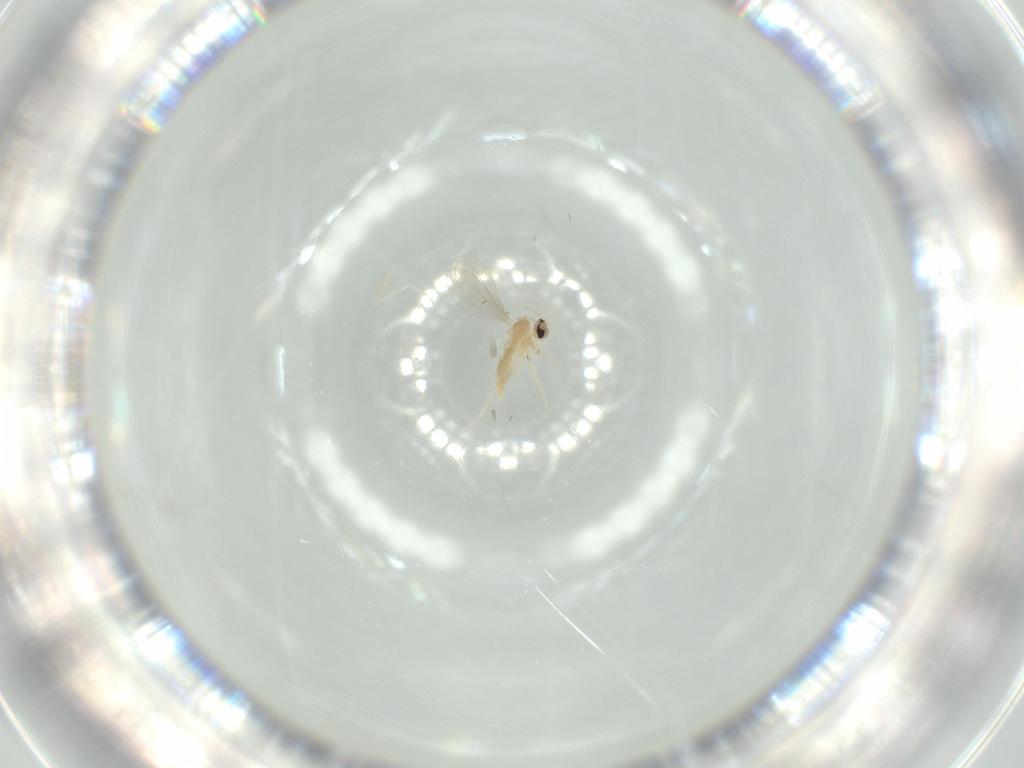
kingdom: Animalia
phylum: Arthropoda
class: Insecta
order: Diptera
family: Cecidomyiidae
